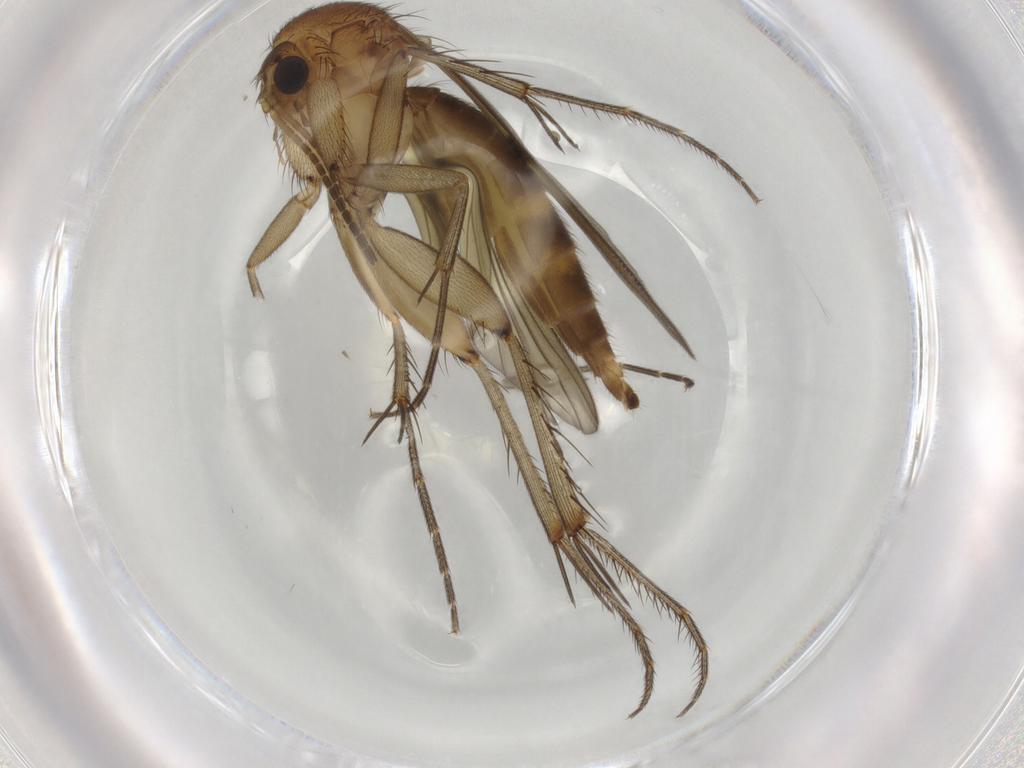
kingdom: Animalia
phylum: Arthropoda
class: Insecta
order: Diptera
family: Mycetophilidae
